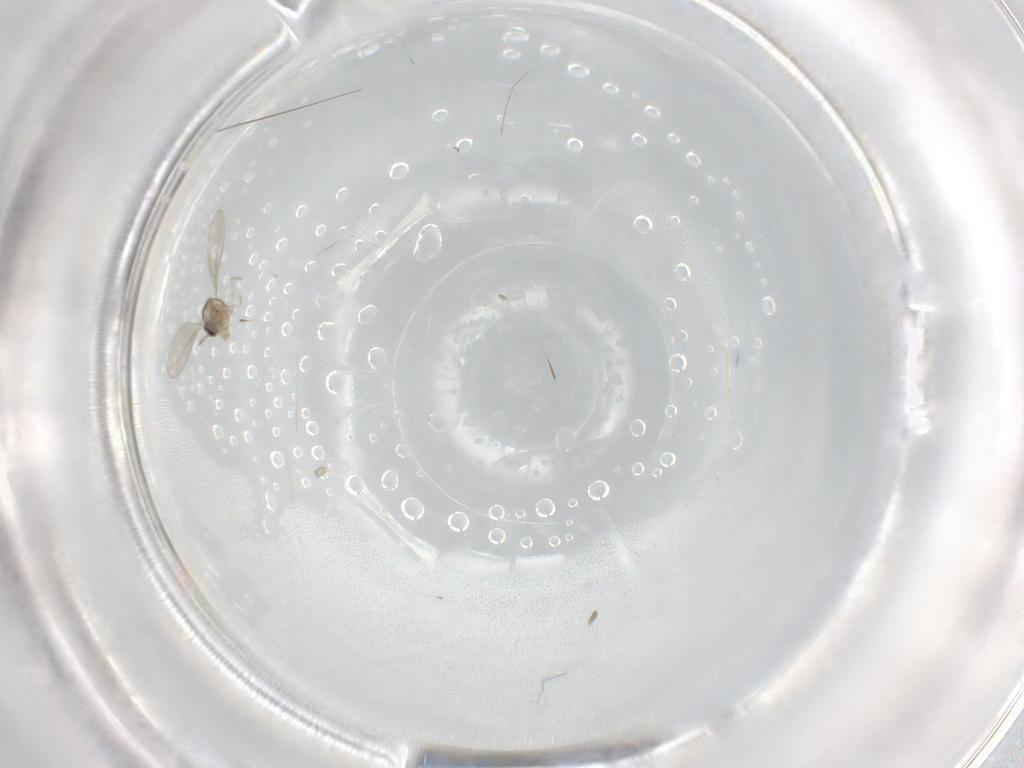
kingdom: Animalia
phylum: Arthropoda
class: Insecta
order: Diptera
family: Cecidomyiidae
